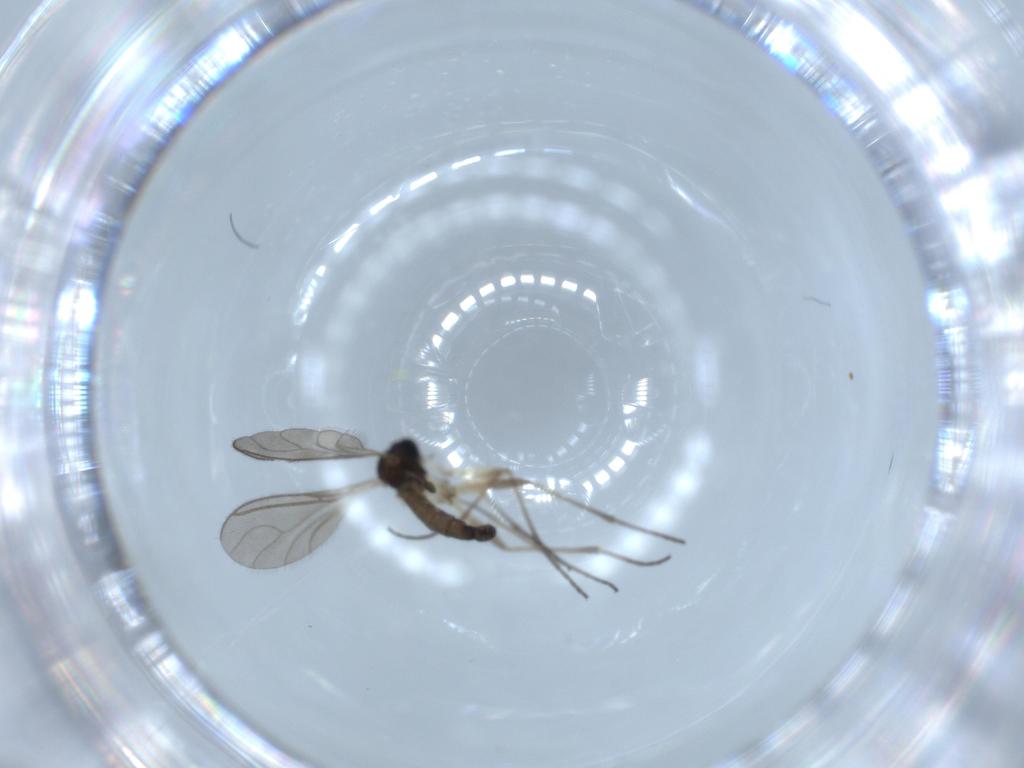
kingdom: Animalia
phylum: Arthropoda
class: Insecta
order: Diptera
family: Sciaridae
